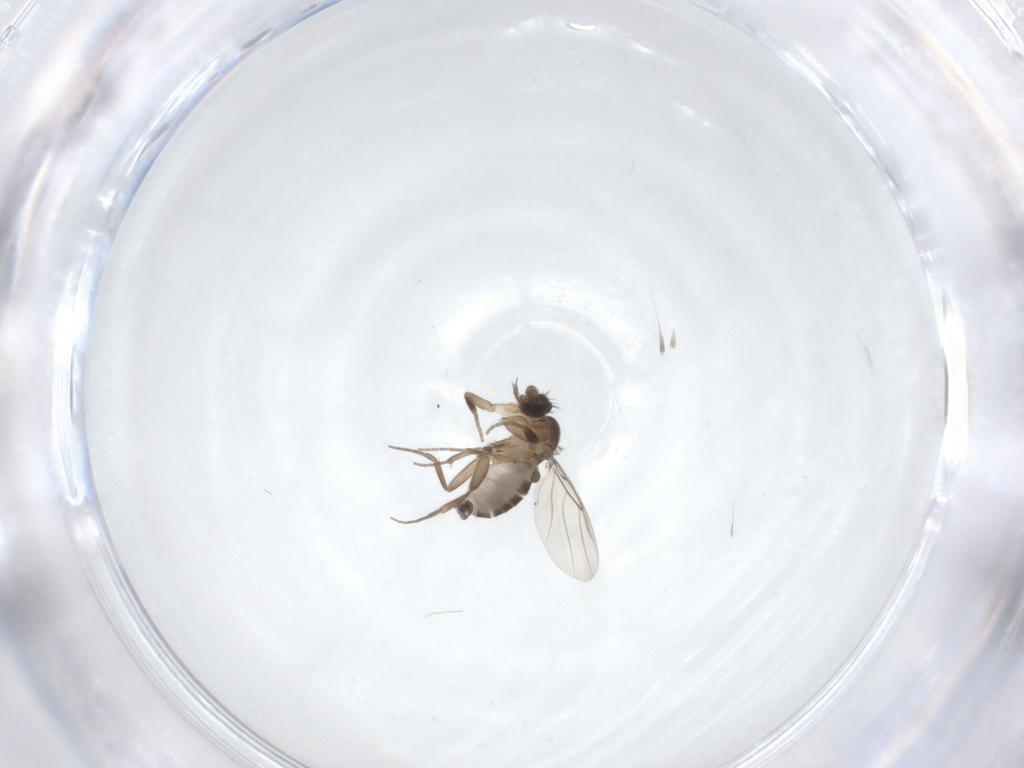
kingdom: Animalia
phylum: Arthropoda
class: Insecta
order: Diptera
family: Phoridae
